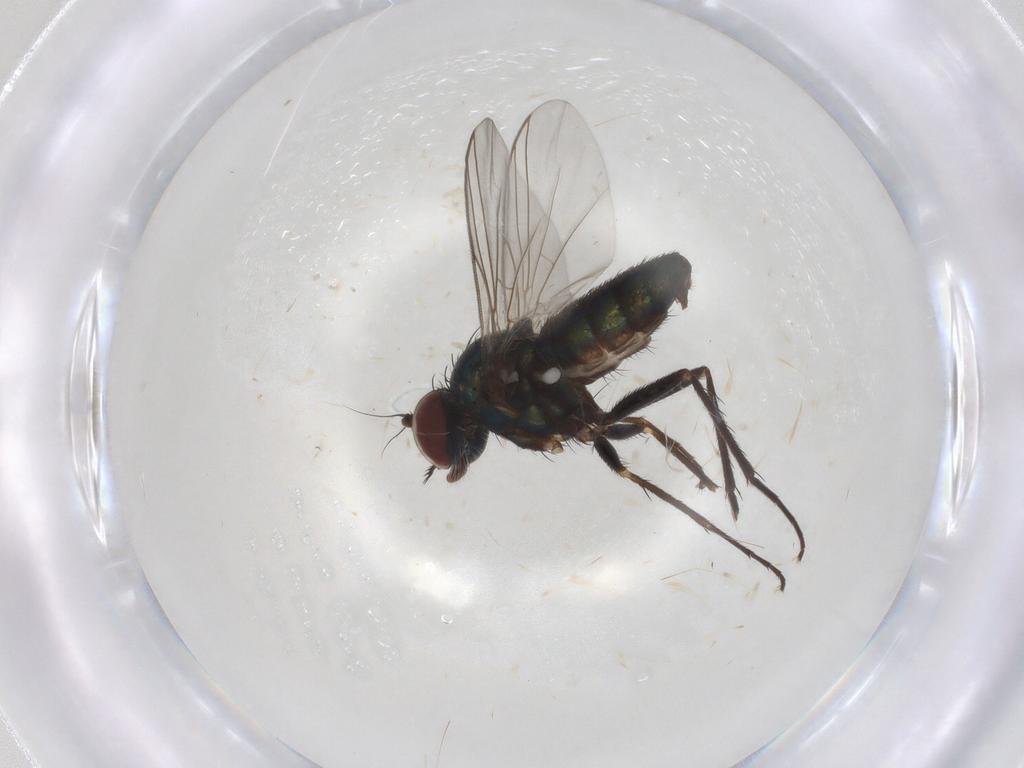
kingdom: Animalia
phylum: Arthropoda
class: Insecta
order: Diptera
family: Dolichopodidae
